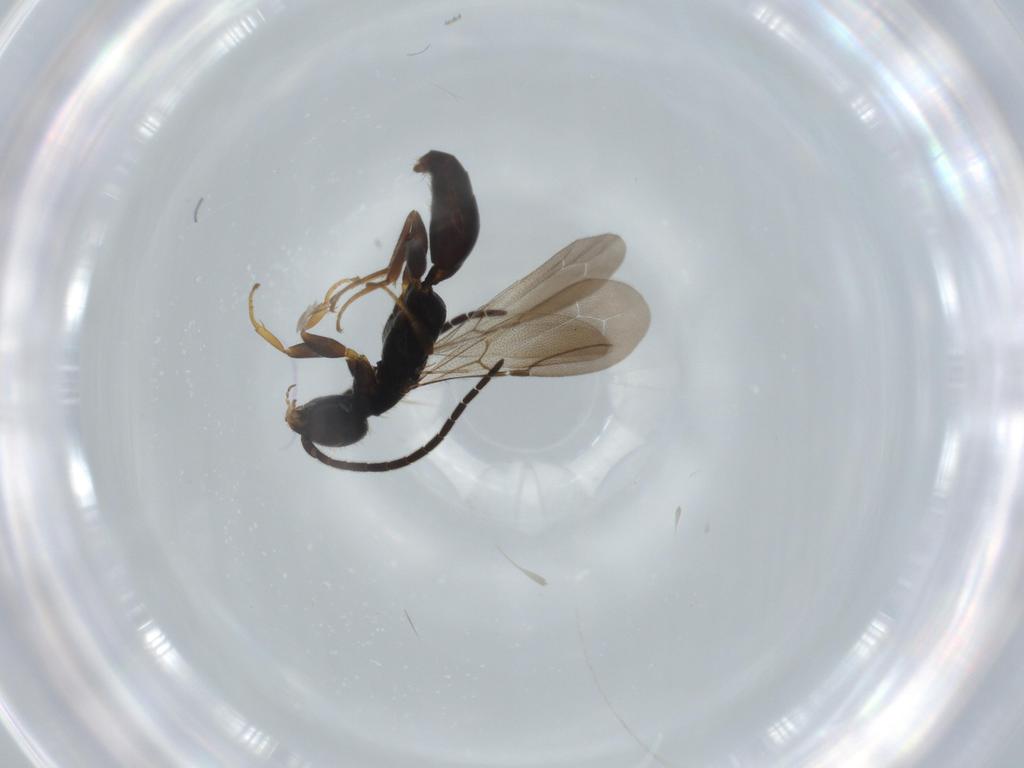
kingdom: Animalia
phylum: Arthropoda
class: Insecta
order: Hymenoptera
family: Bethylidae
